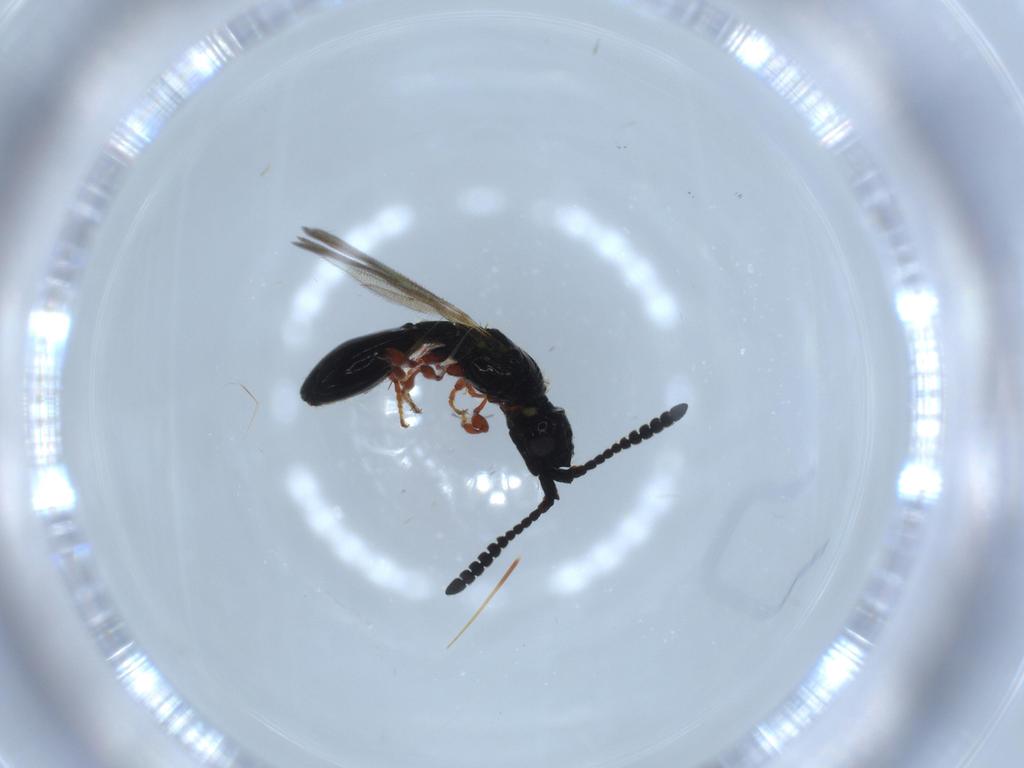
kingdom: Animalia
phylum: Arthropoda
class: Insecta
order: Hymenoptera
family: Diapriidae
